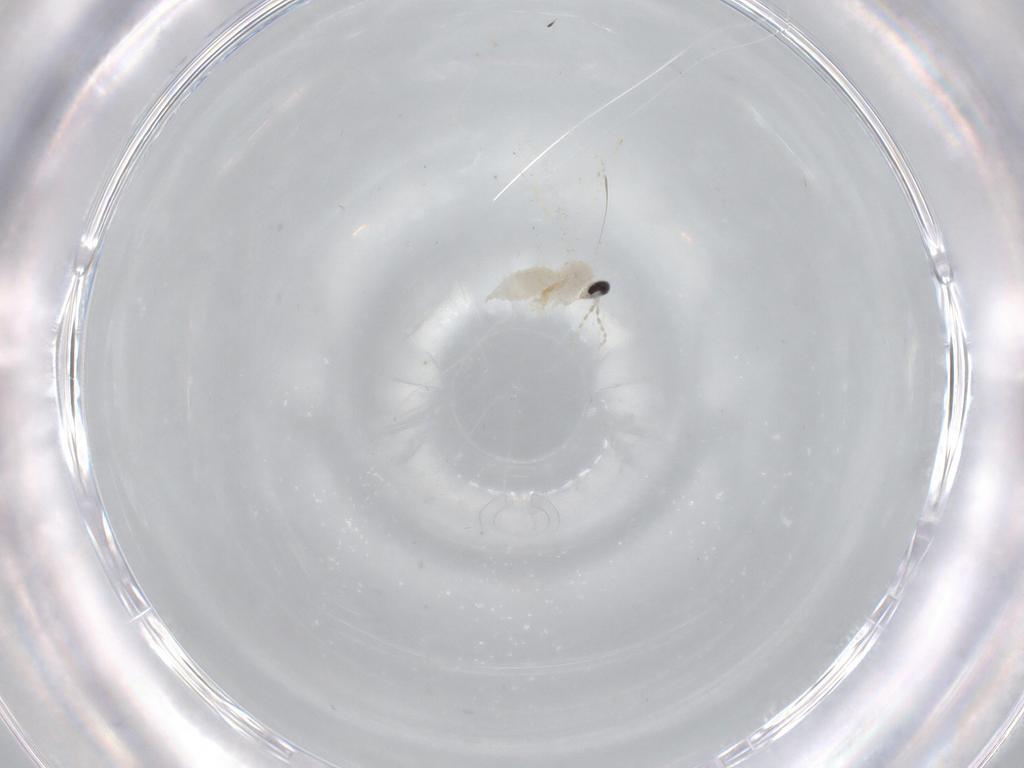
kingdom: Animalia
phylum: Arthropoda
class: Insecta
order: Diptera
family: Cecidomyiidae
